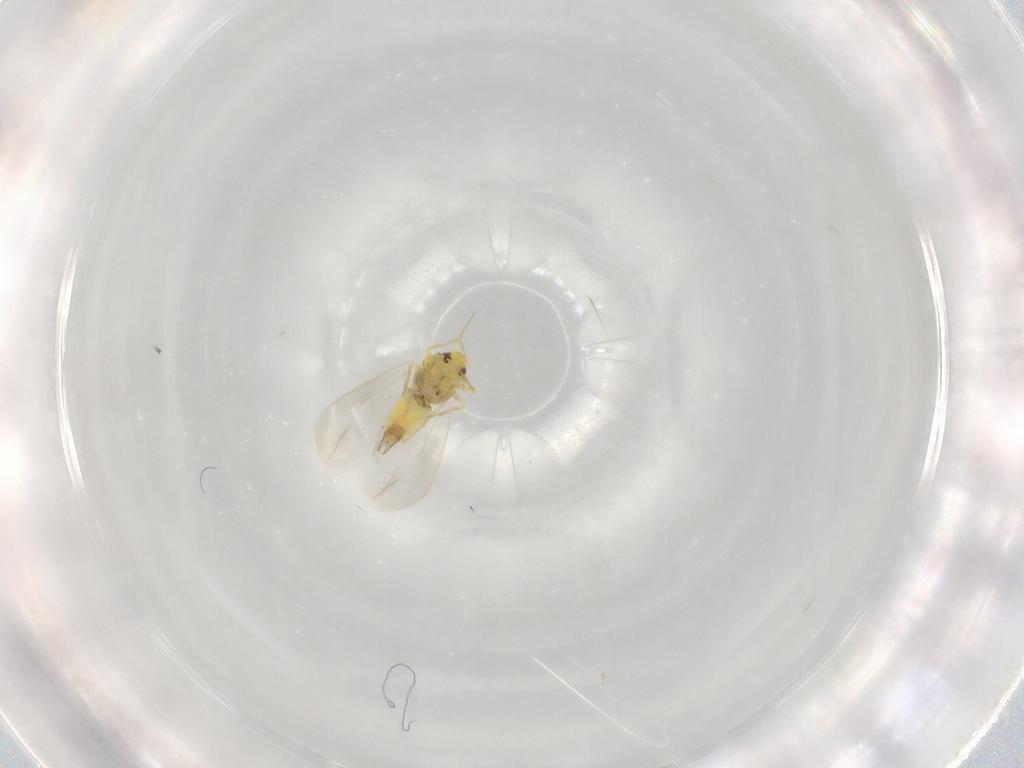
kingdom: Animalia
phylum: Arthropoda
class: Insecta
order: Hemiptera
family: Aleyrodidae
